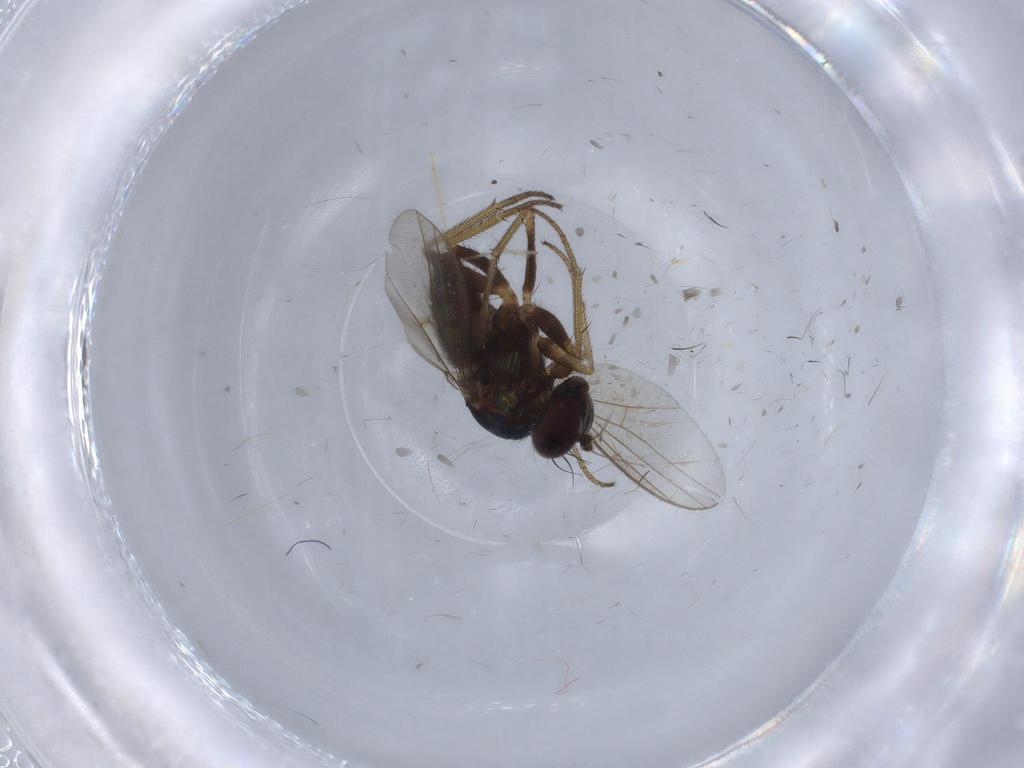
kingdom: Animalia
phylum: Arthropoda
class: Insecta
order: Diptera
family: Chironomidae
